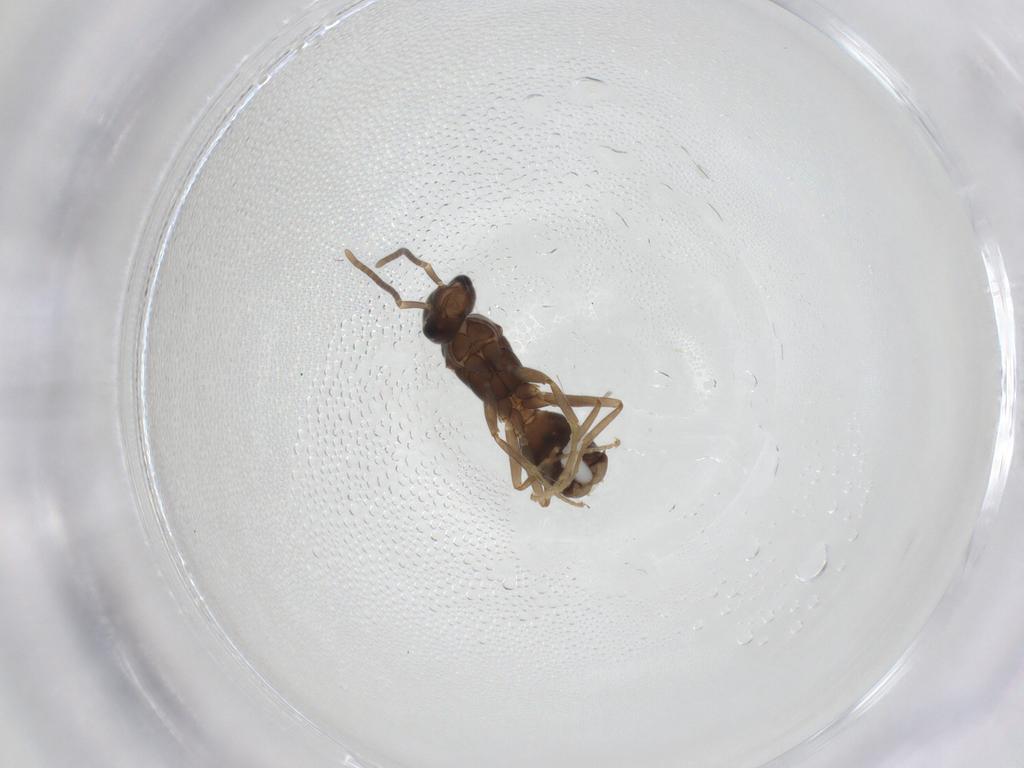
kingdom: Animalia
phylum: Arthropoda
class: Insecta
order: Hymenoptera
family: Formicidae
